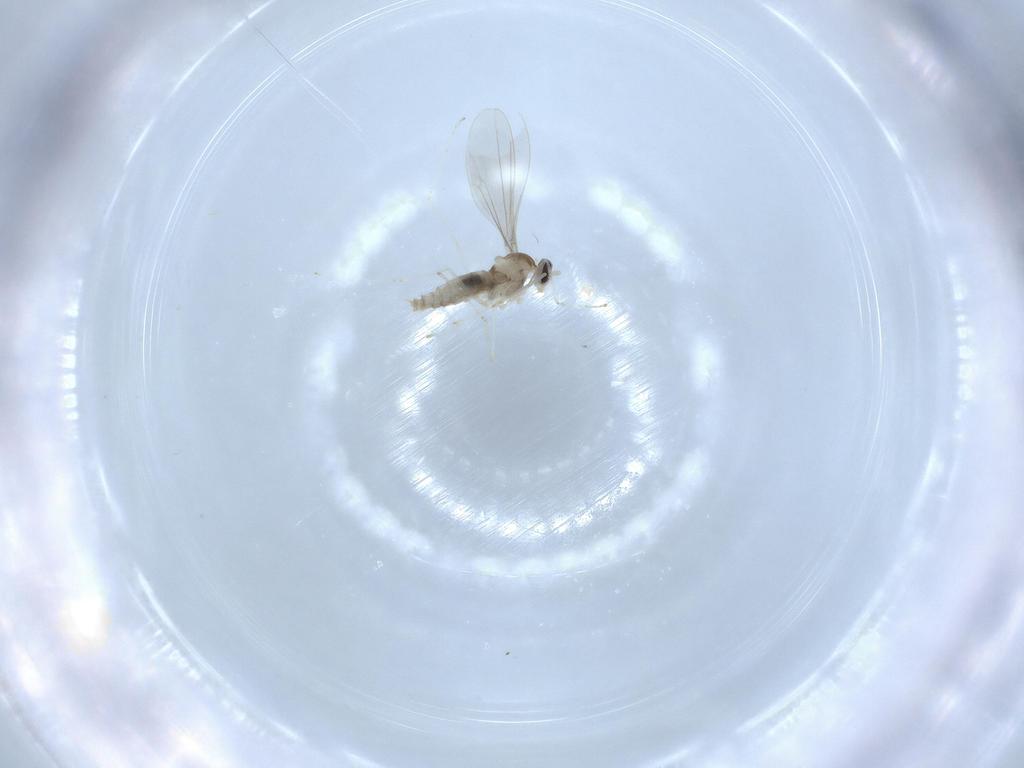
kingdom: Animalia
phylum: Arthropoda
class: Insecta
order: Diptera
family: Cecidomyiidae
